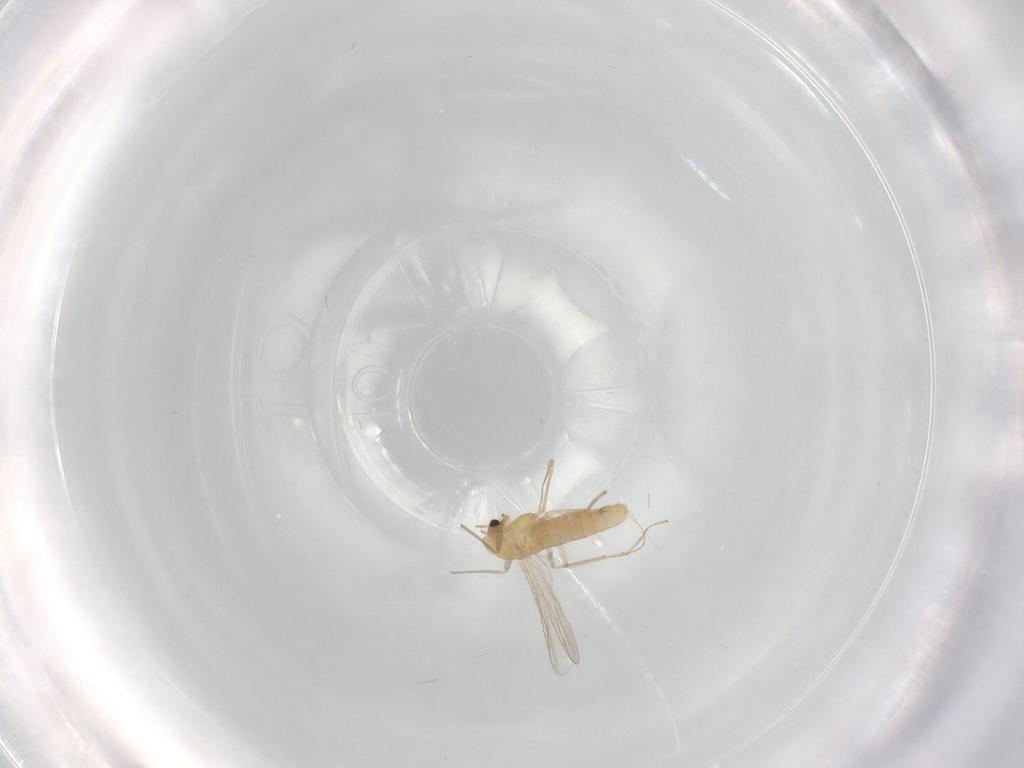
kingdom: Animalia
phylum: Arthropoda
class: Insecta
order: Diptera
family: Chironomidae
